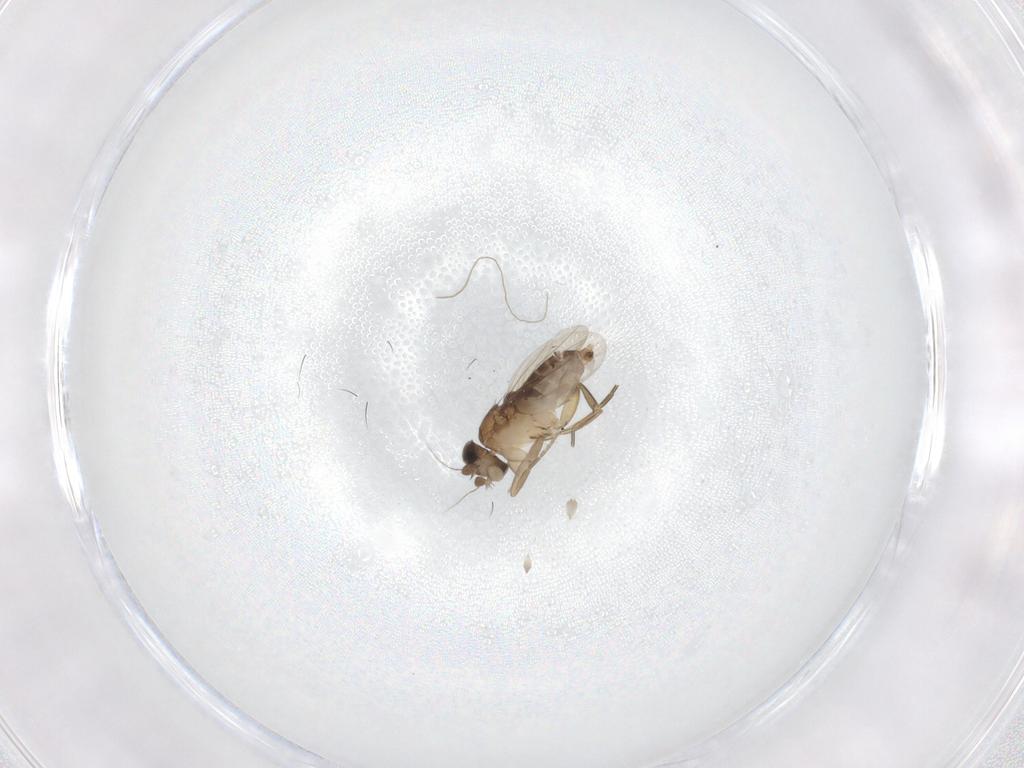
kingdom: Animalia
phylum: Arthropoda
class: Insecta
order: Diptera
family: Phoridae
